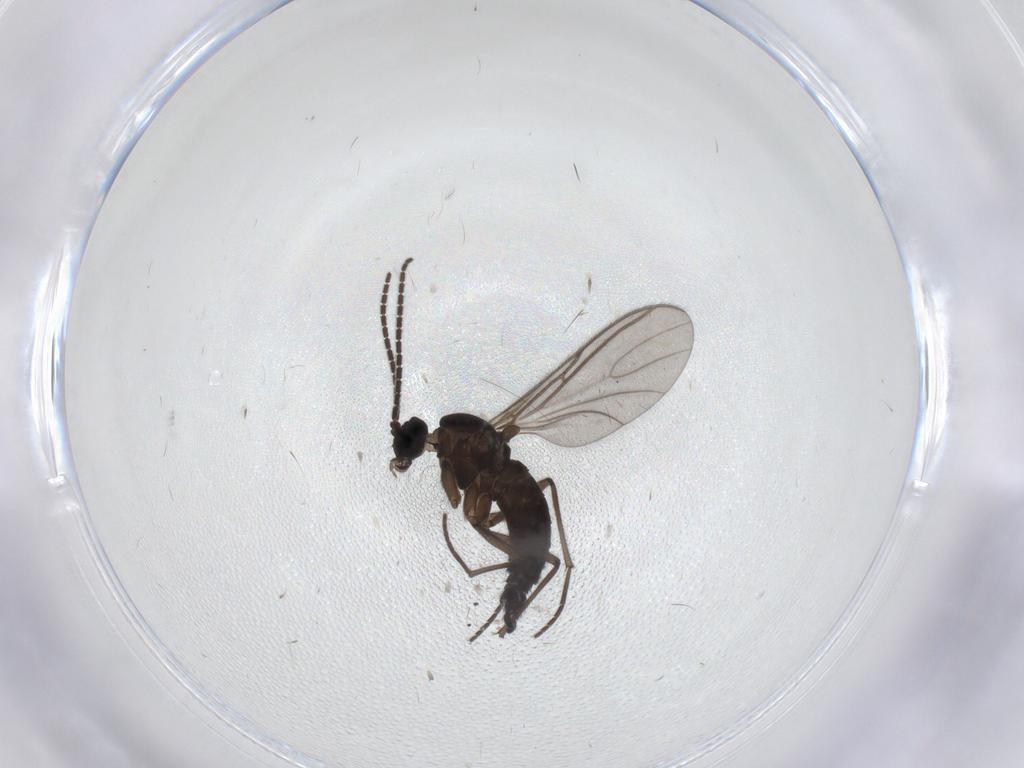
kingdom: Animalia
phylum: Arthropoda
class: Insecta
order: Diptera
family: Sciaridae
